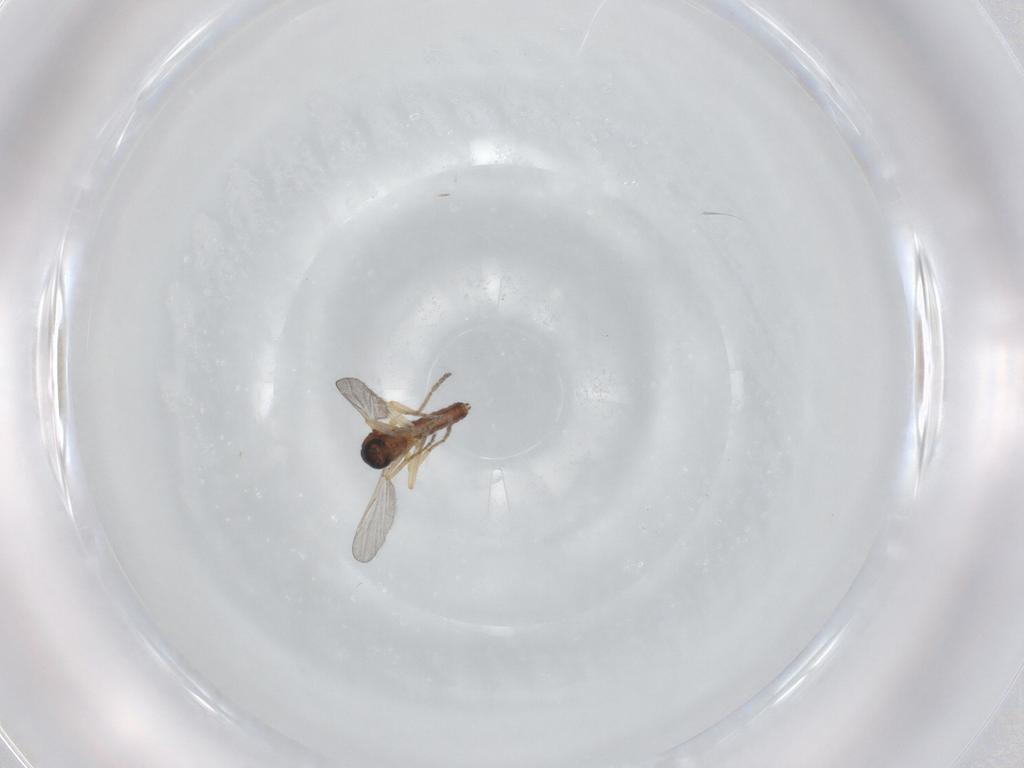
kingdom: Animalia
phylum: Arthropoda
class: Insecta
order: Diptera
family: Ceratopogonidae
